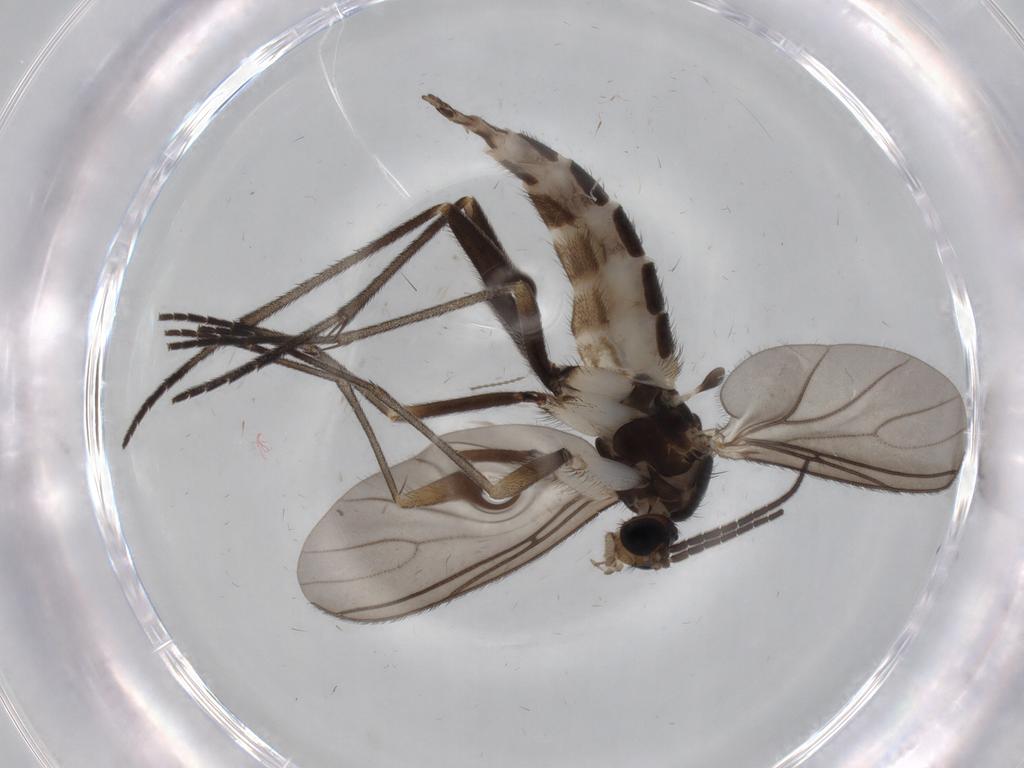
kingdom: Animalia
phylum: Arthropoda
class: Insecta
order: Diptera
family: Sciaridae
